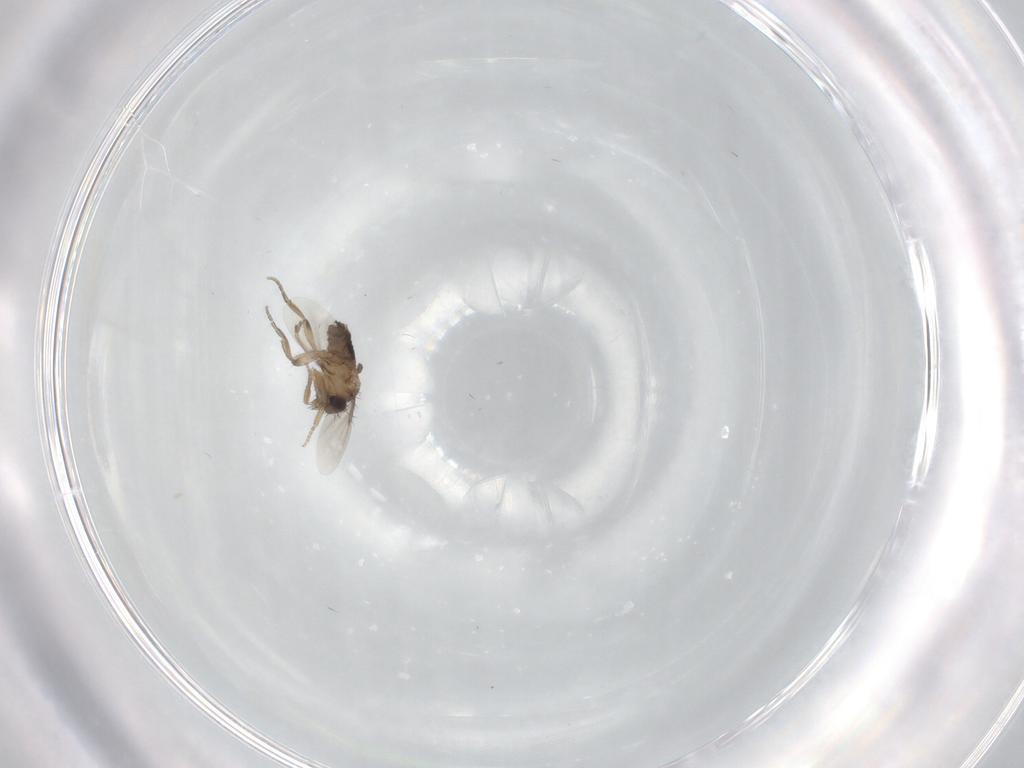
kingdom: Animalia
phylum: Arthropoda
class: Insecta
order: Diptera
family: Phoridae
